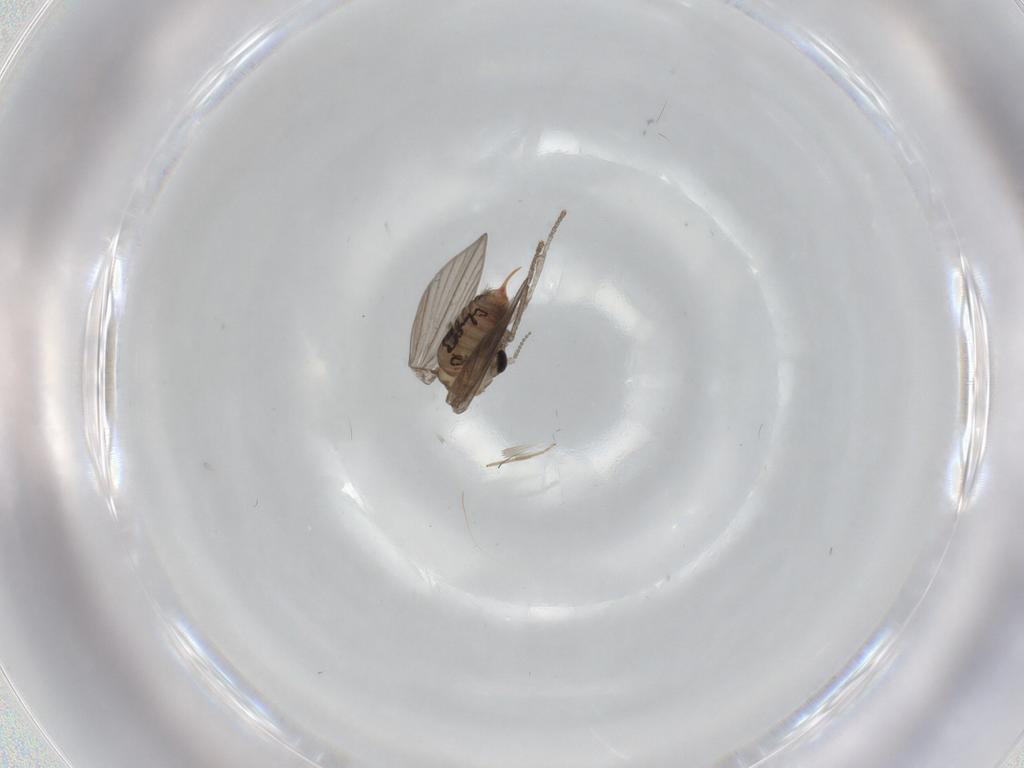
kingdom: Animalia
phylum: Arthropoda
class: Insecta
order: Diptera
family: Psychodidae
